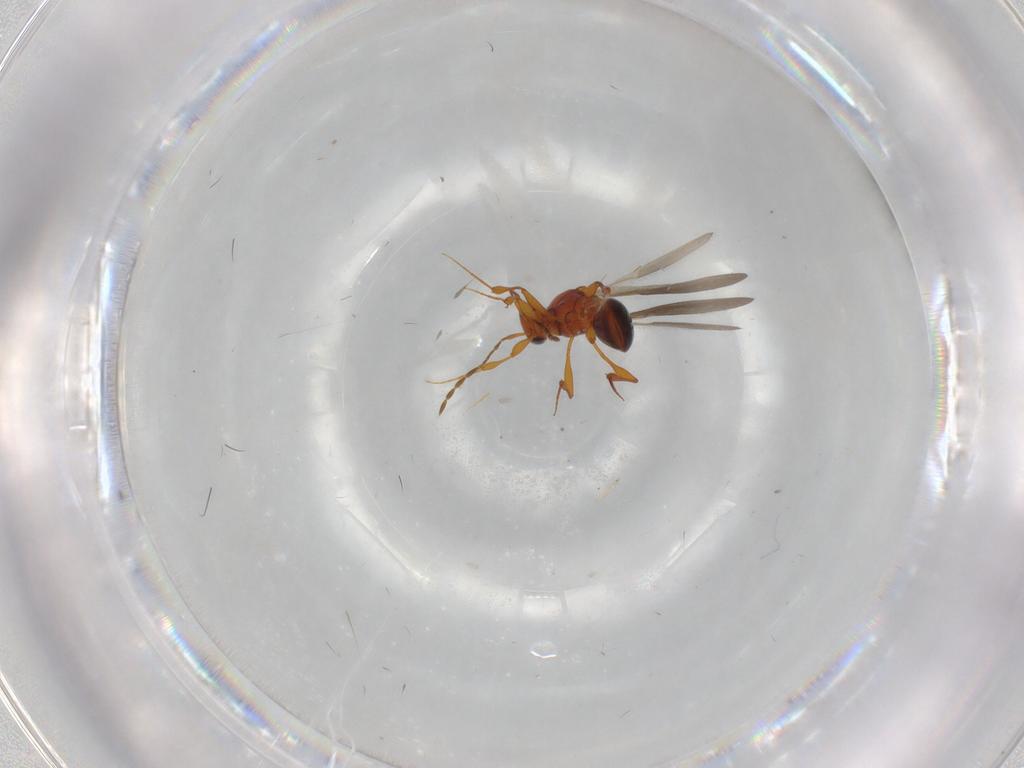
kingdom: Animalia
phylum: Arthropoda
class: Insecta
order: Hymenoptera
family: Platygastridae
